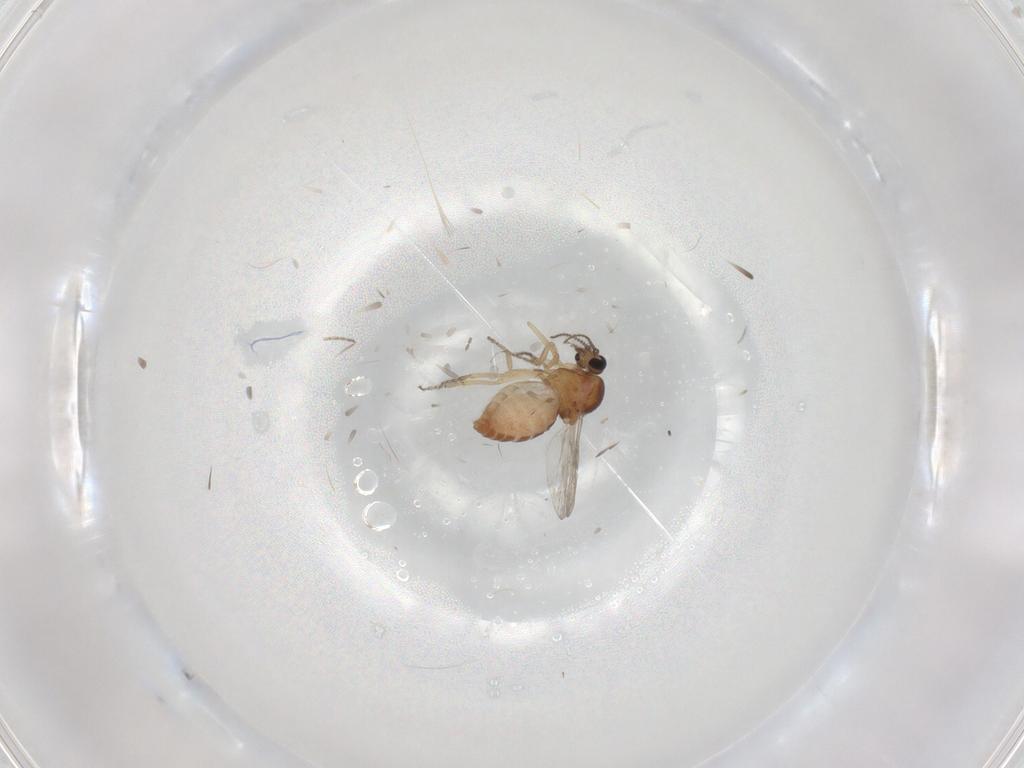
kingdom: Animalia
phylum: Arthropoda
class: Insecta
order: Diptera
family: Ceratopogonidae
